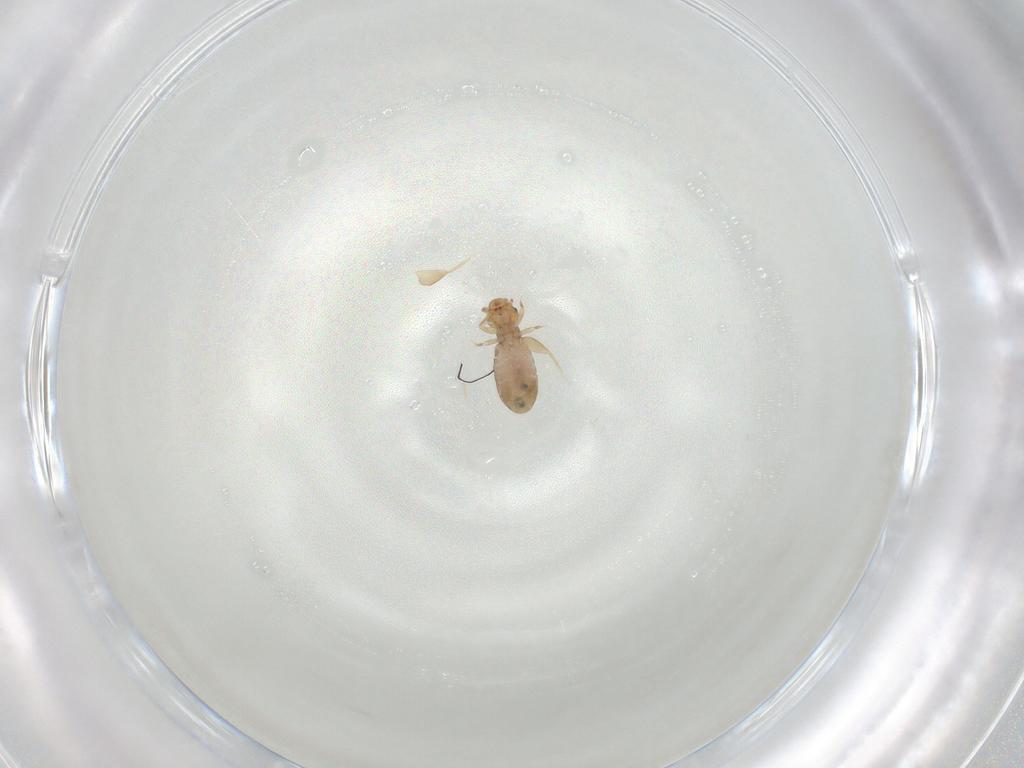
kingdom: Animalia
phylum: Arthropoda
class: Insecta
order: Psocodea
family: Liposcelididae
